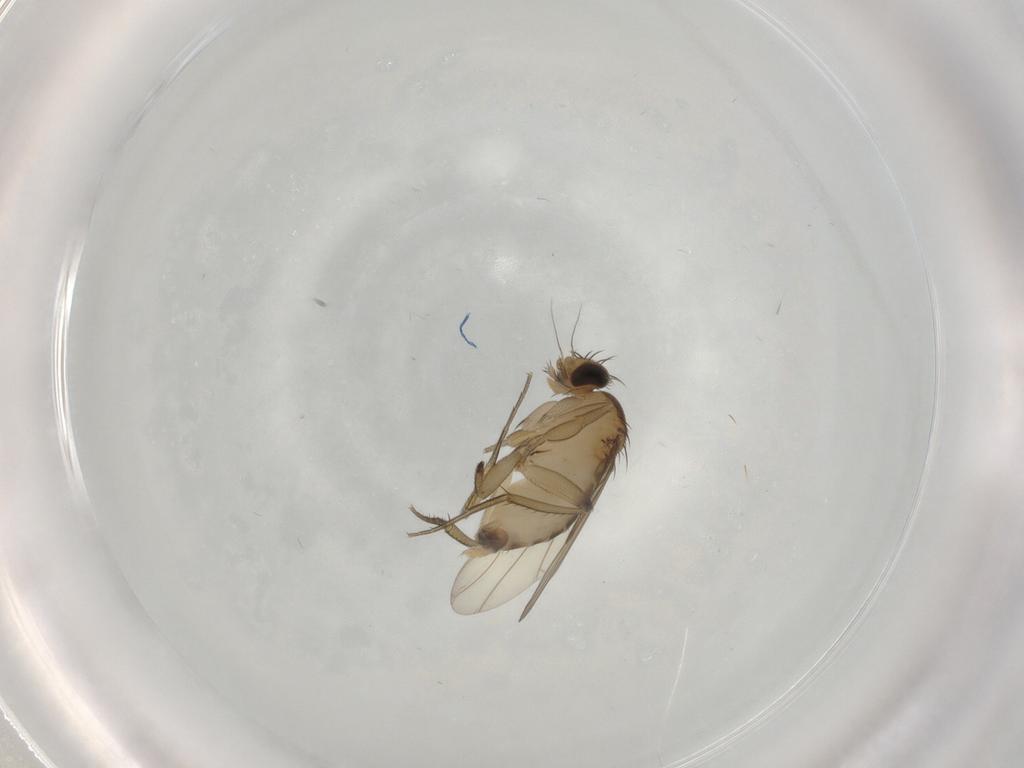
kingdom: Animalia
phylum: Arthropoda
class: Insecta
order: Diptera
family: Phoridae
